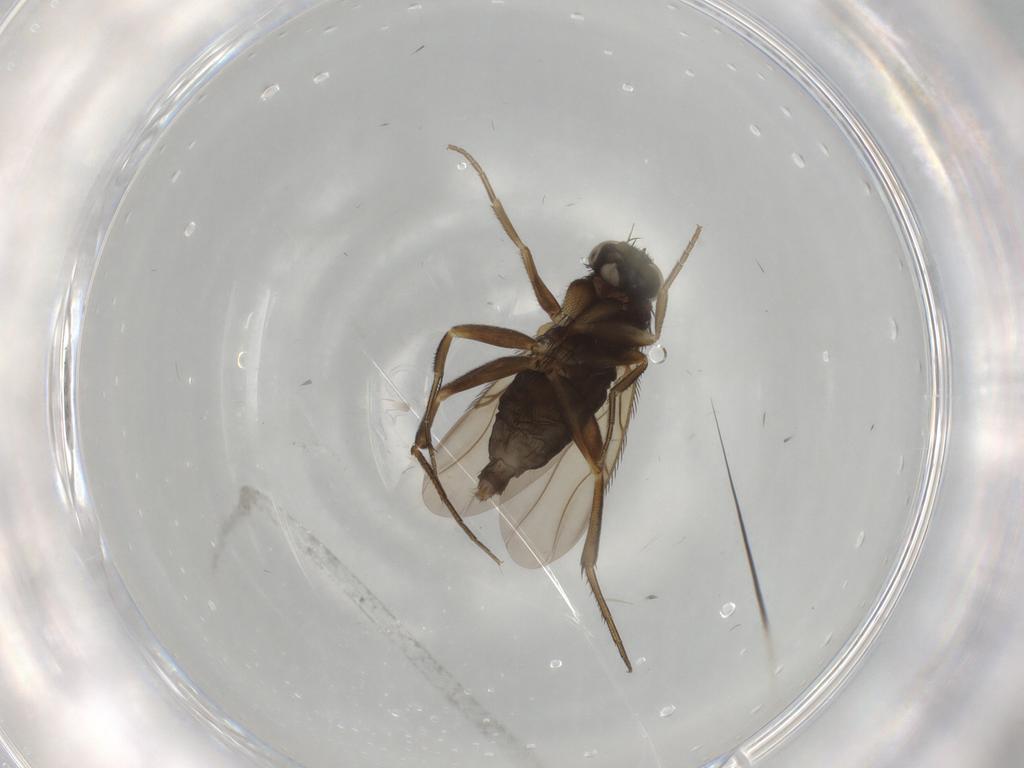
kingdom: Animalia
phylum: Arthropoda
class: Insecta
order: Diptera
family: Phoridae
